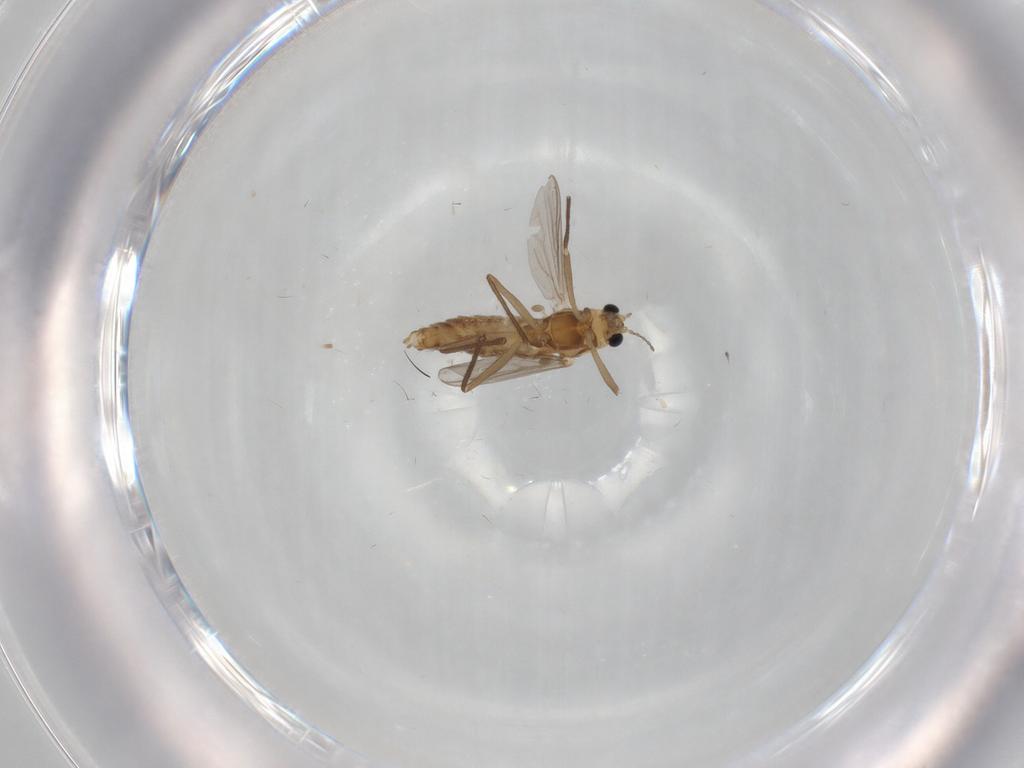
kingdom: Animalia
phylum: Arthropoda
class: Insecta
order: Diptera
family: Chironomidae
